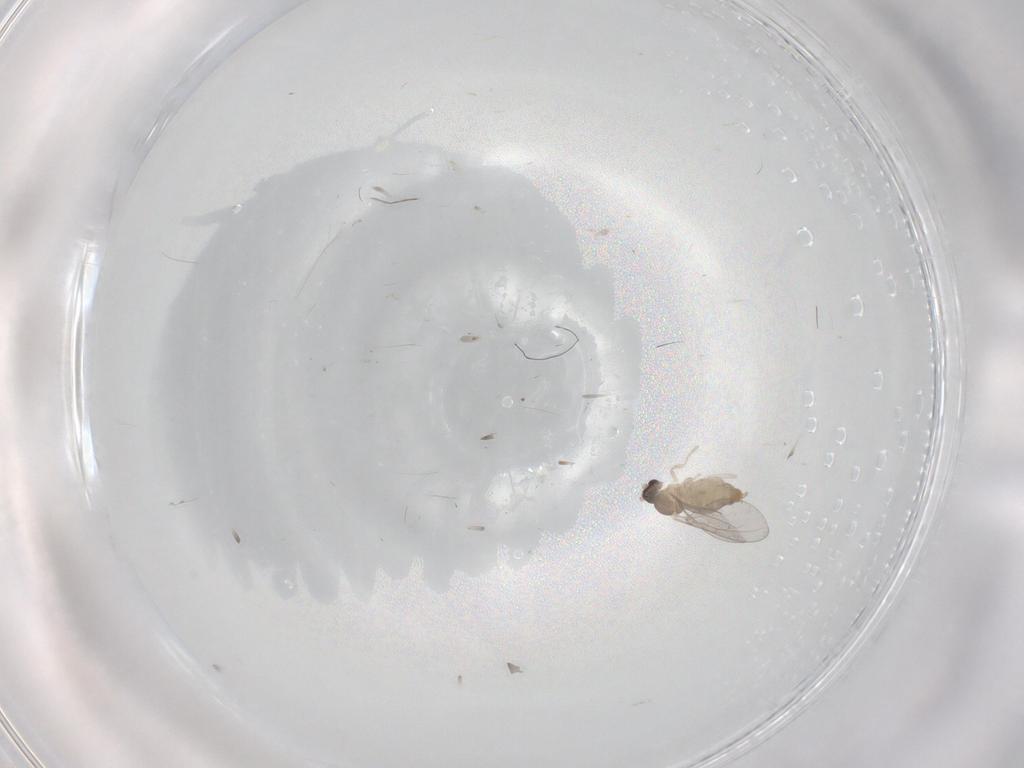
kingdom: Animalia
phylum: Arthropoda
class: Insecta
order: Diptera
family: Cecidomyiidae
